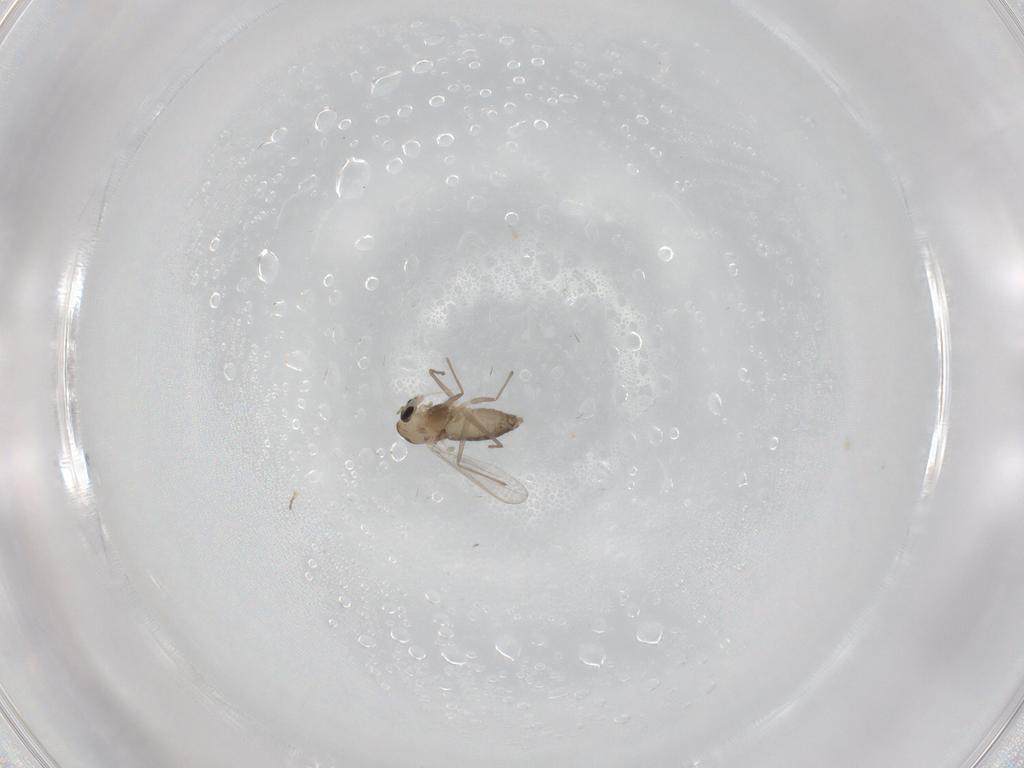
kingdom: Animalia
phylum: Arthropoda
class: Insecta
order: Diptera
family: Chironomidae
